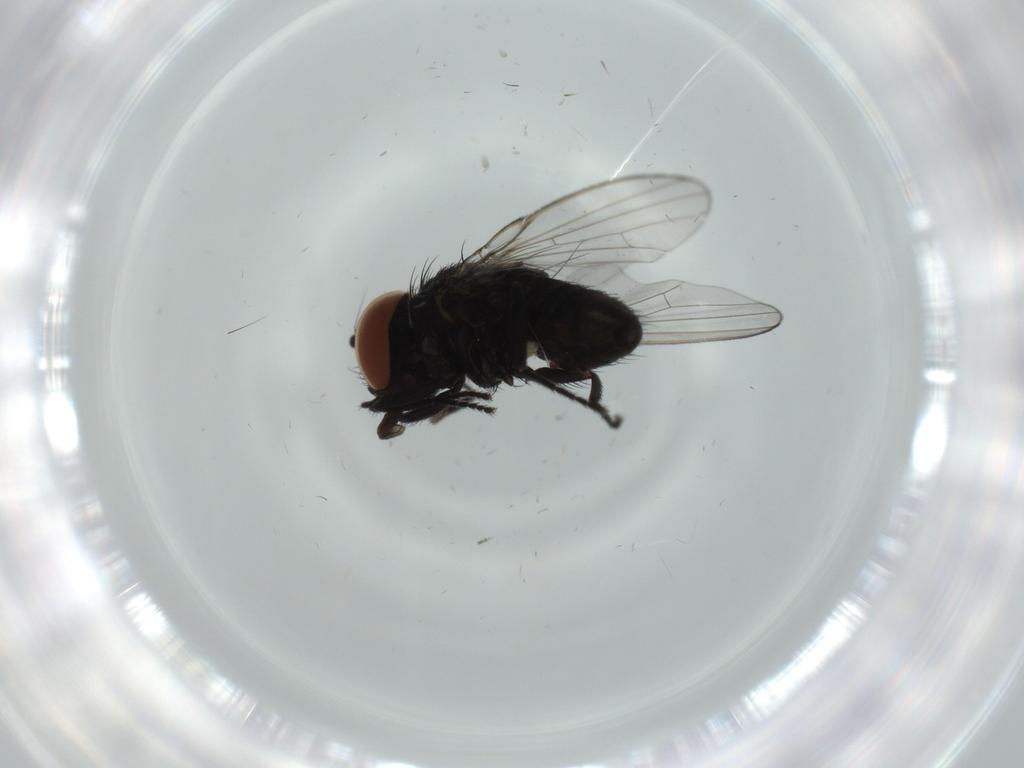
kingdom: Animalia
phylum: Arthropoda
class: Insecta
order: Diptera
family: Milichiidae
